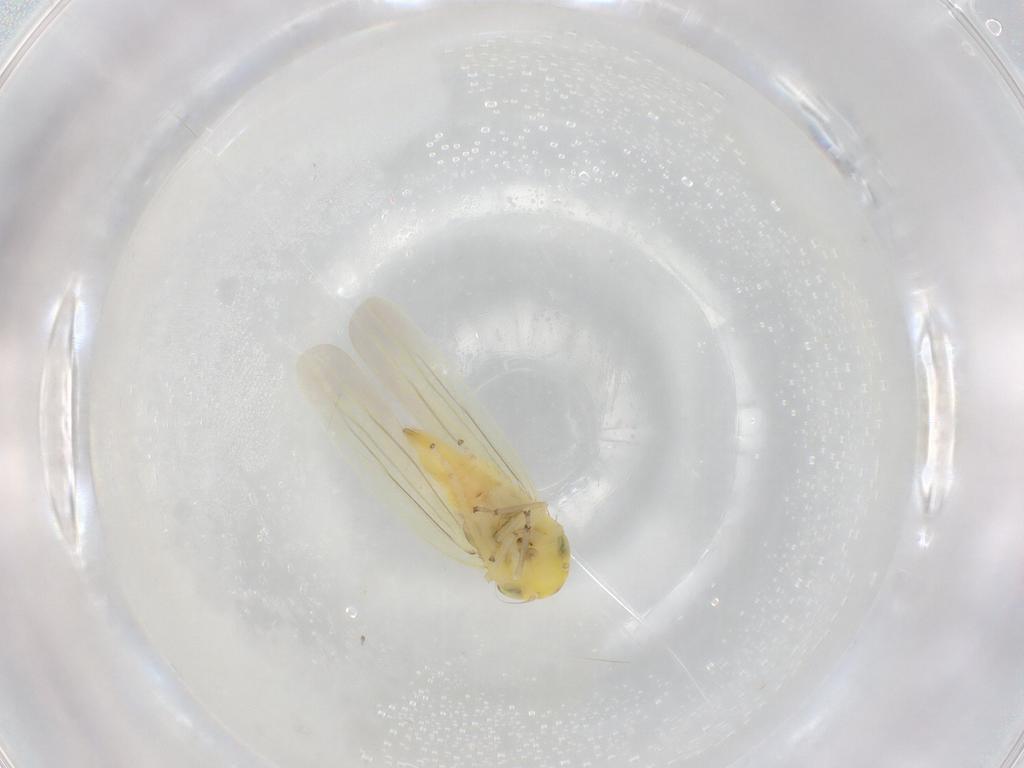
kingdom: Animalia
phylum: Arthropoda
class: Insecta
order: Hemiptera
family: Cicadellidae
